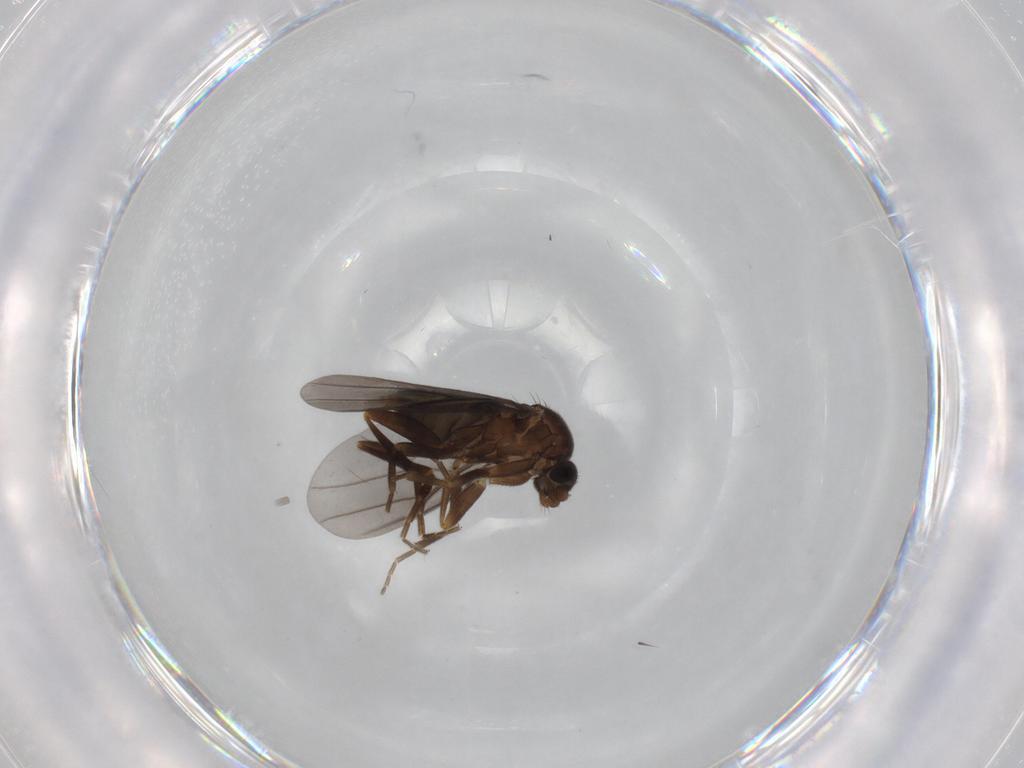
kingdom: Animalia
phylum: Arthropoda
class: Insecta
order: Diptera
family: Phoridae
